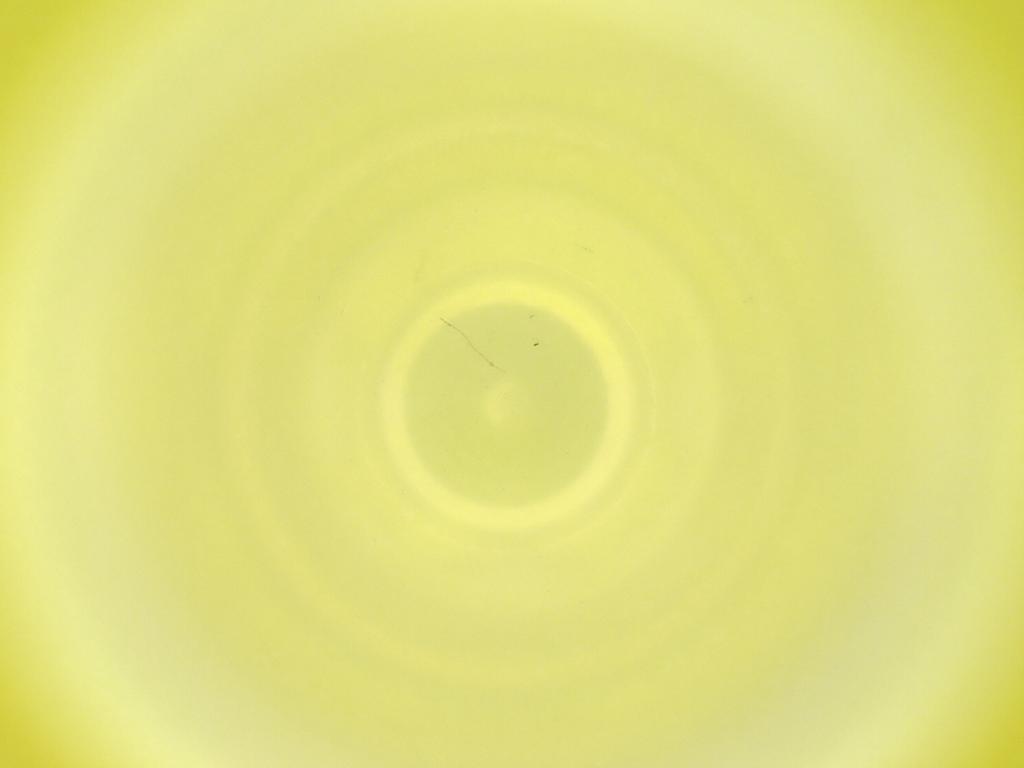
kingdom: Animalia
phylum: Arthropoda
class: Insecta
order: Diptera
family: Cecidomyiidae
